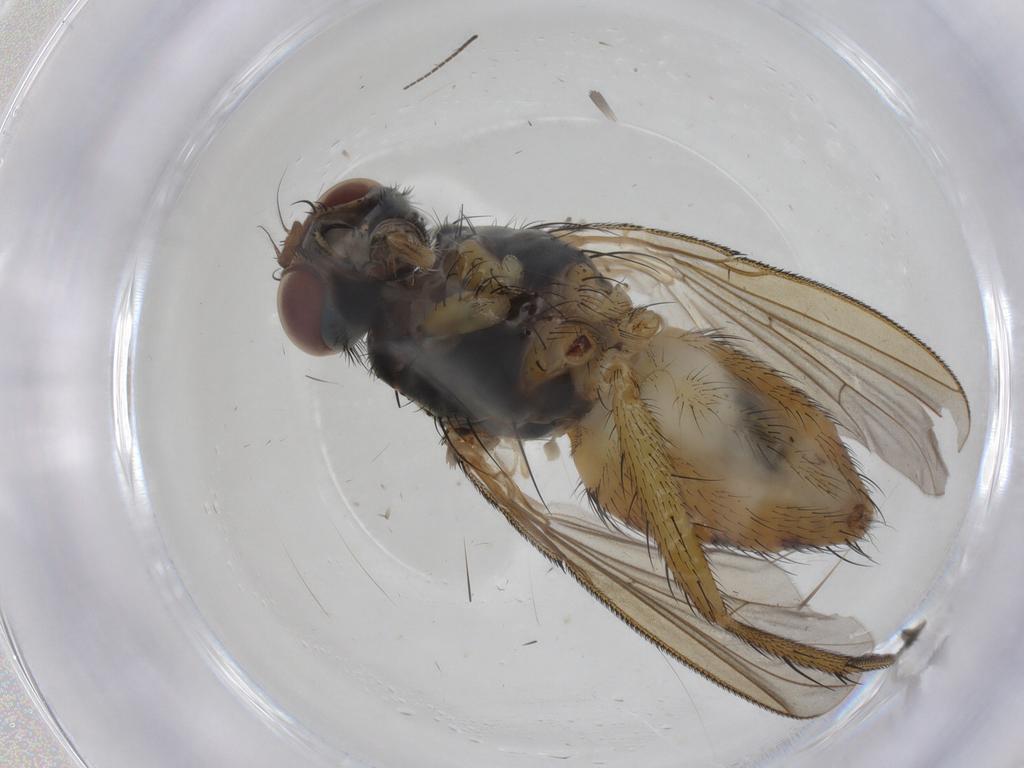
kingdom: Animalia
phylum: Arthropoda
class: Insecta
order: Diptera
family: Muscidae
